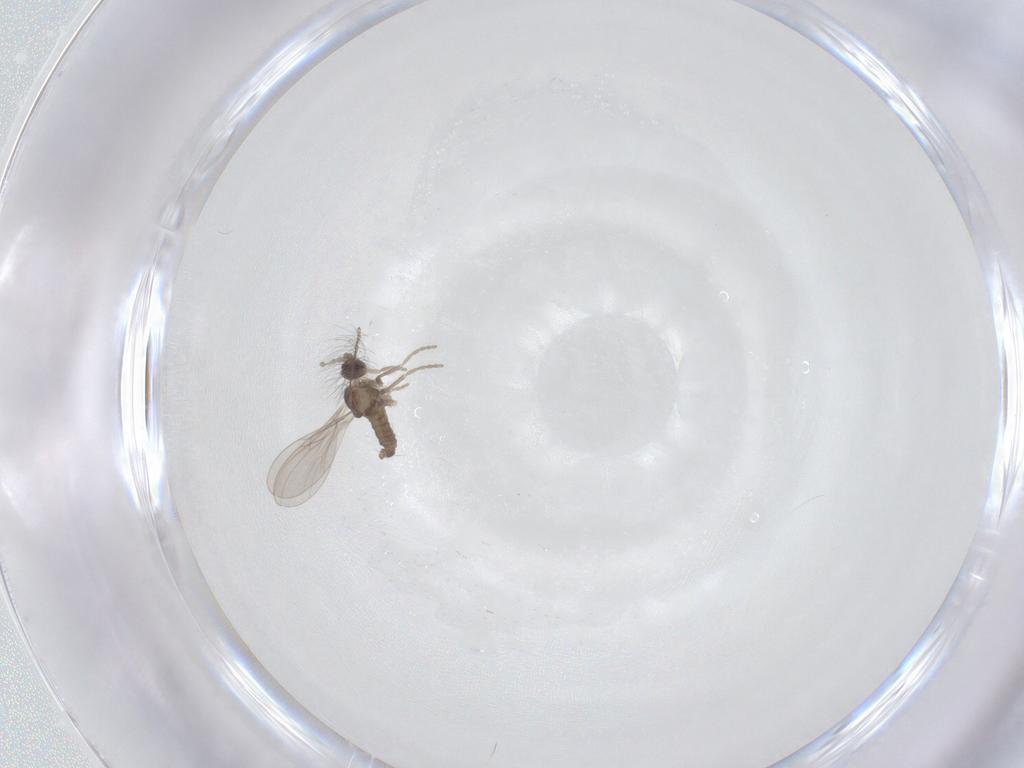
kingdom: Animalia
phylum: Arthropoda
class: Insecta
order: Diptera
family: Cecidomyiidae
